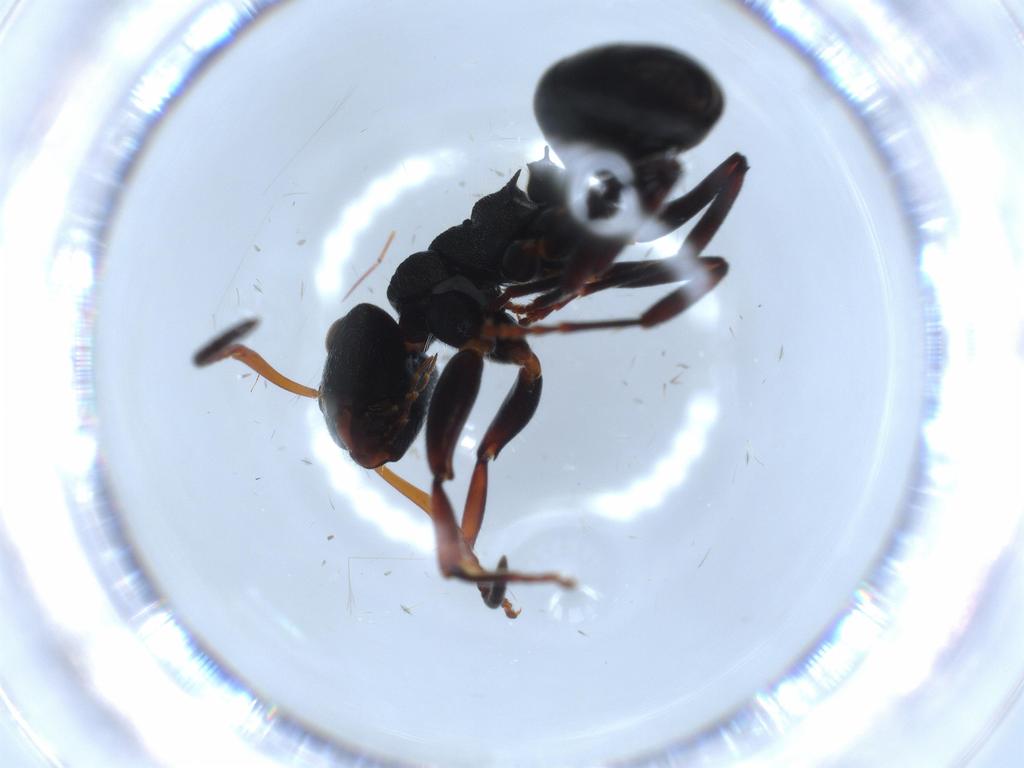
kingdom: Animalia
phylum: Arthropoda
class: Insecta
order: Hymenoptera
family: Formicidae
